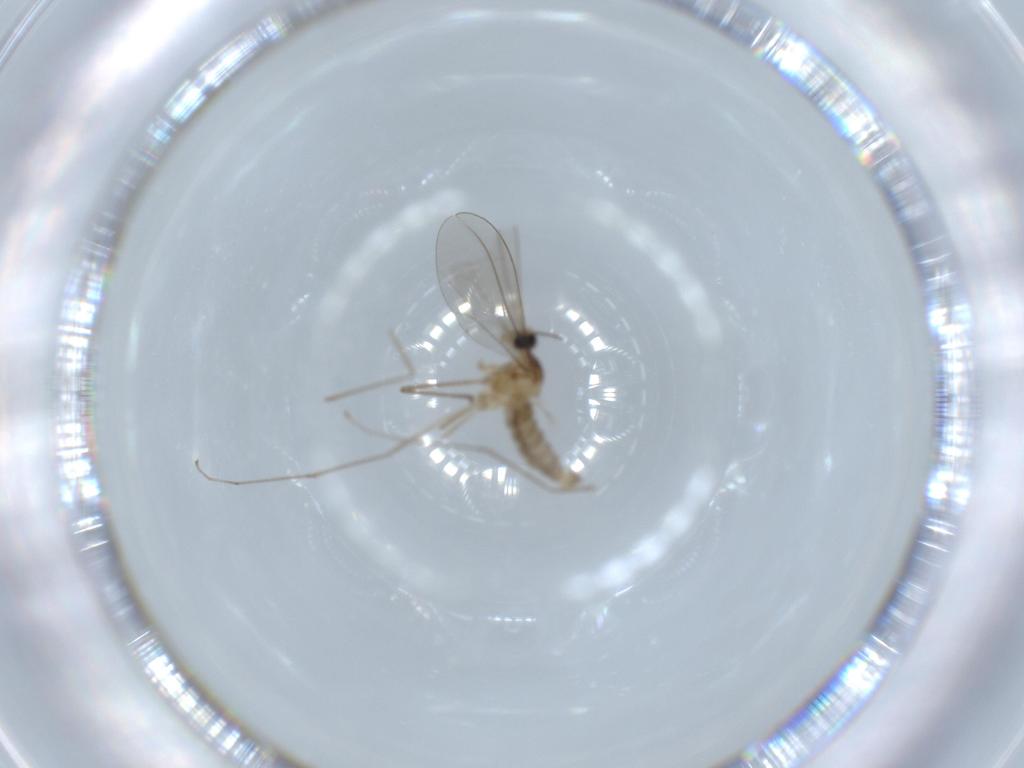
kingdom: Animalia
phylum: Arthropoda
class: Insecta
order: Diptera
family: Cecidomyiidae
